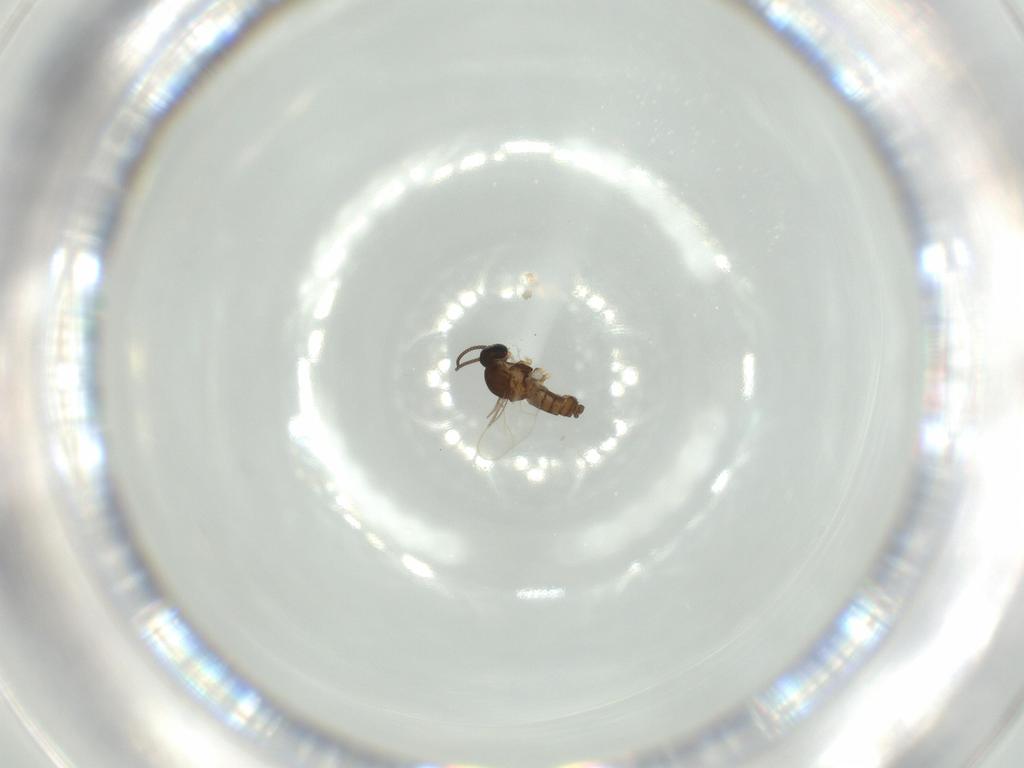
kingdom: Animalia
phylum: Arthropoda
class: Insecta
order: Diptera
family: Cecidomyiidae
